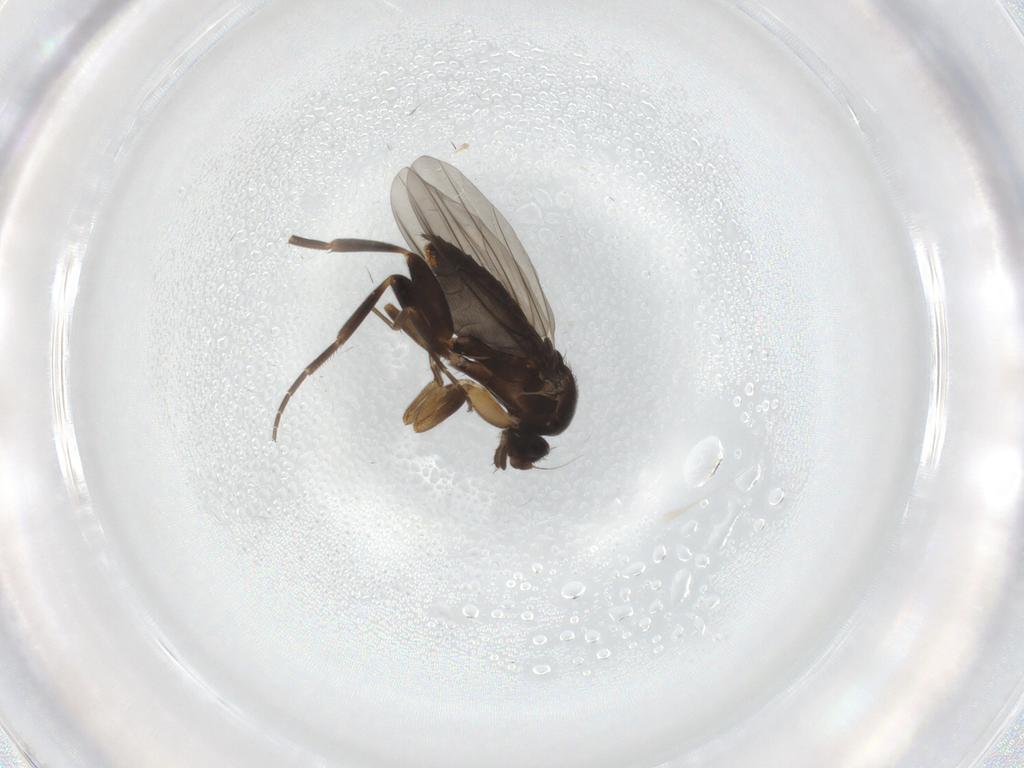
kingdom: Animalia
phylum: Arthropoda
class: Insecta
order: Diptera
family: Phoridae
